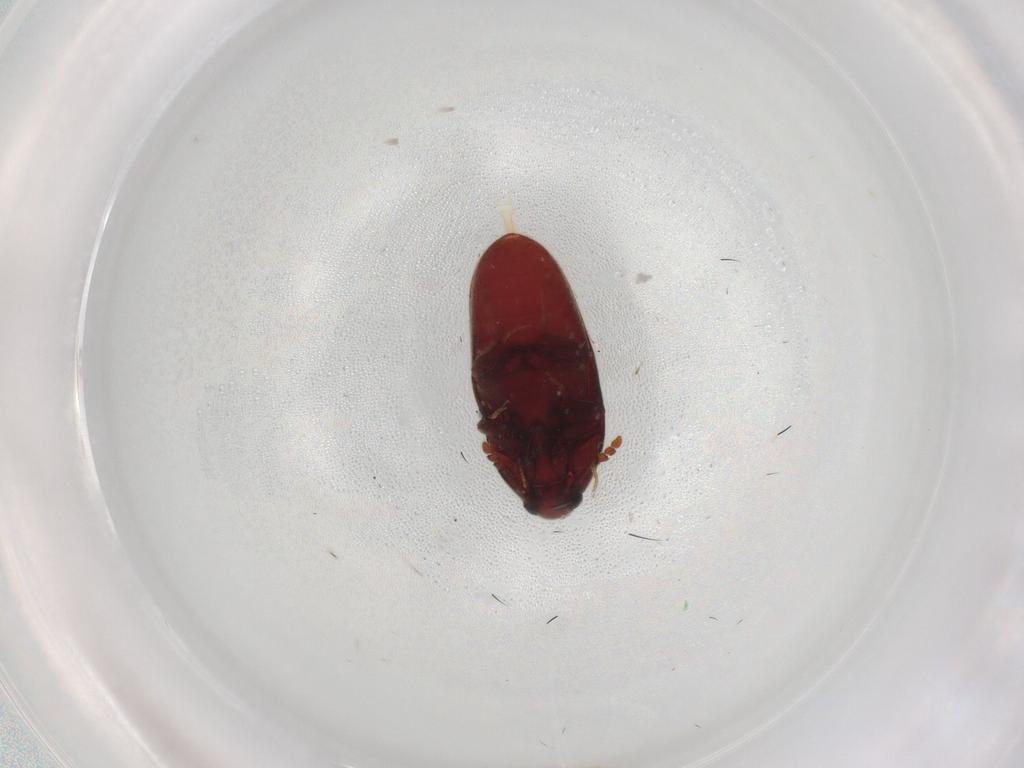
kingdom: Animalia
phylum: Arthropoda
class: Insecta
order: Coleoptera
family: Throscidae
